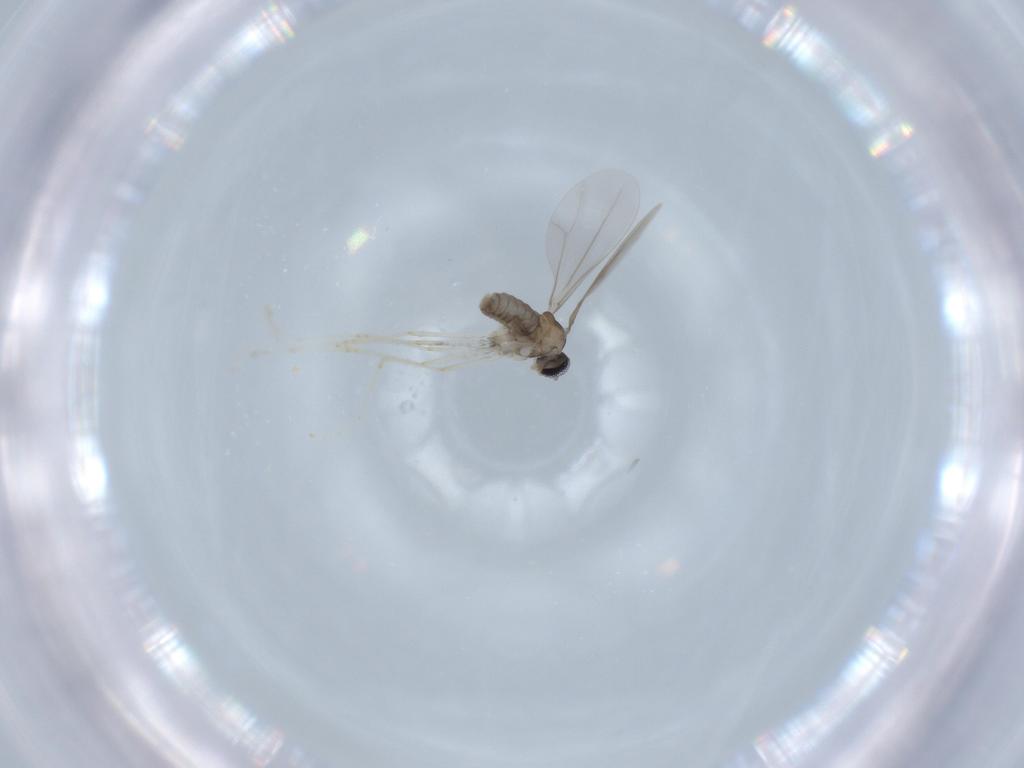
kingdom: Animalia
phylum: Arthropoda
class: Insecta
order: Diptera
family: Cecidomyiidae
